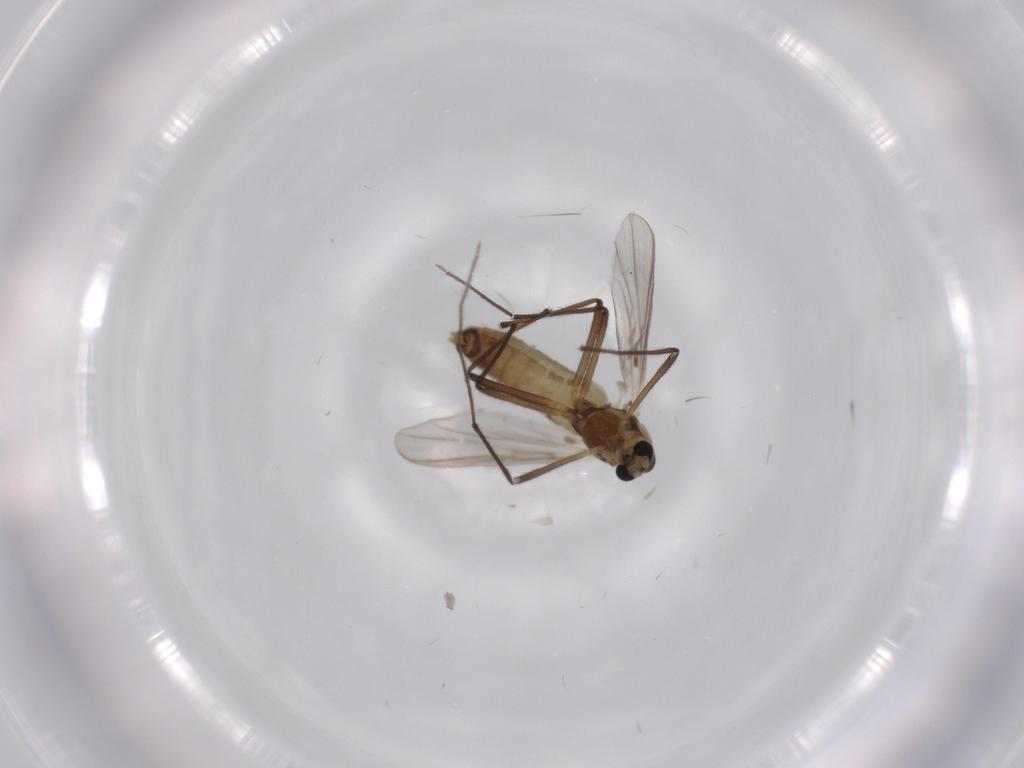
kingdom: Animalia
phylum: Arthropoda
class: Insecta
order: Diptera
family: Chironomidae
